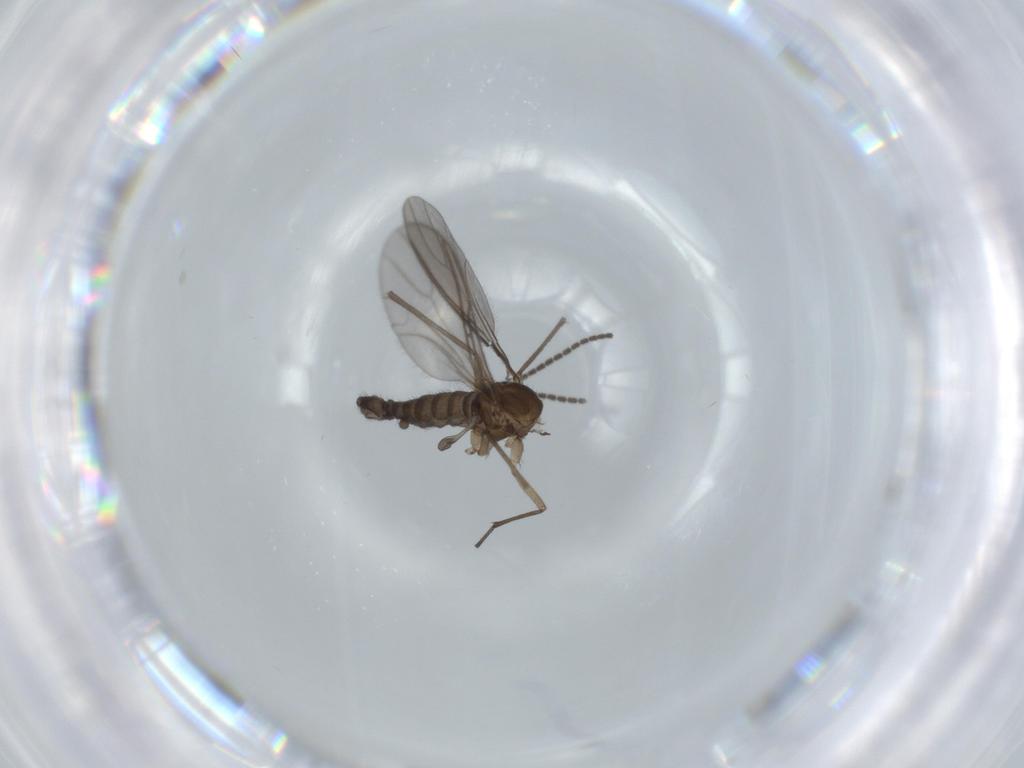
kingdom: Animalia
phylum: Arthropoda
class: Insecta
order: Diptera
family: Sciaridae
